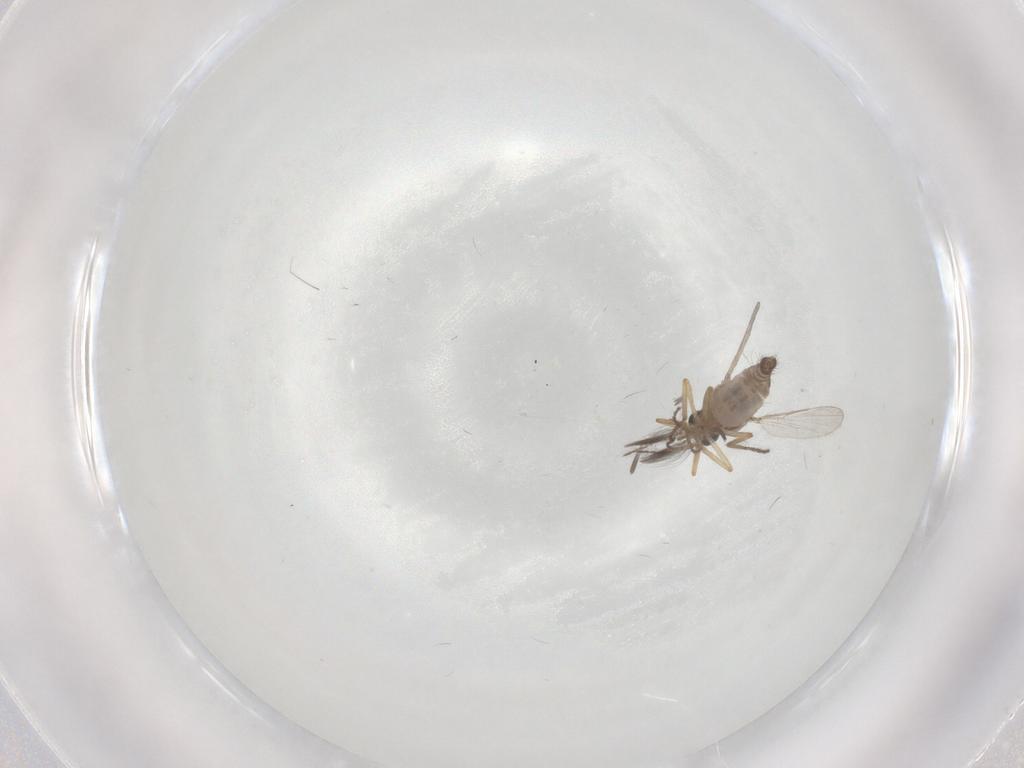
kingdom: Animalia
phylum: Arthropoda
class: Insecta
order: Diptera
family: Ceratopogonidae
